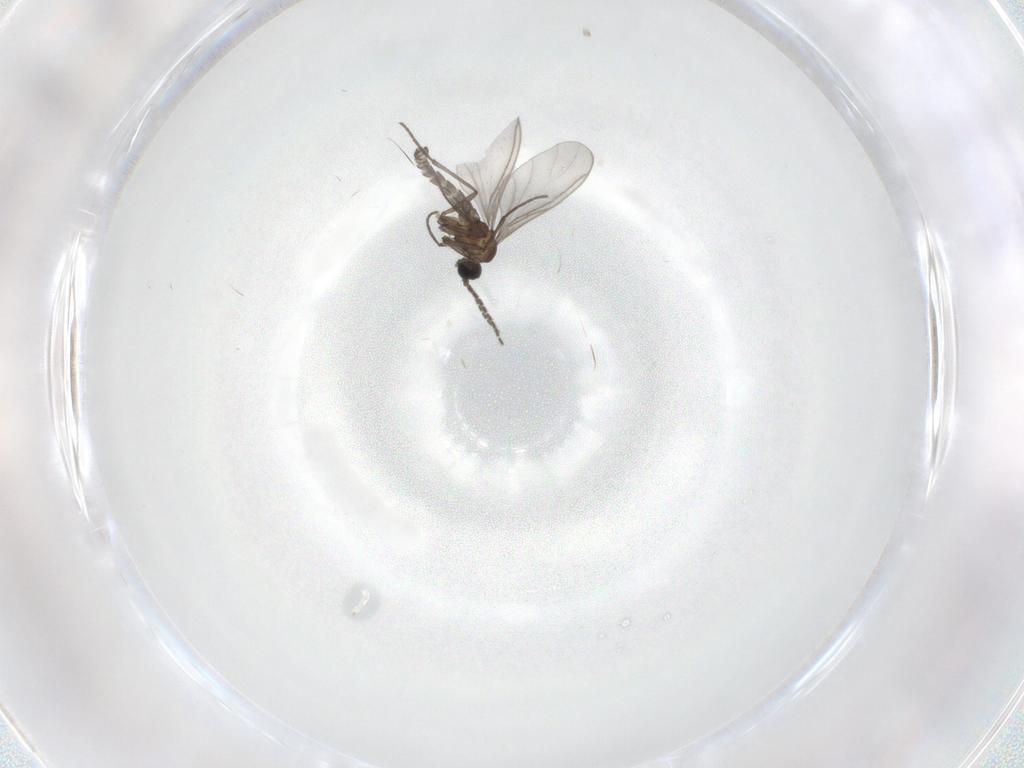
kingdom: Animalia
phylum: Arthropoda
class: Insecta
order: Diptera
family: Sciaridae
